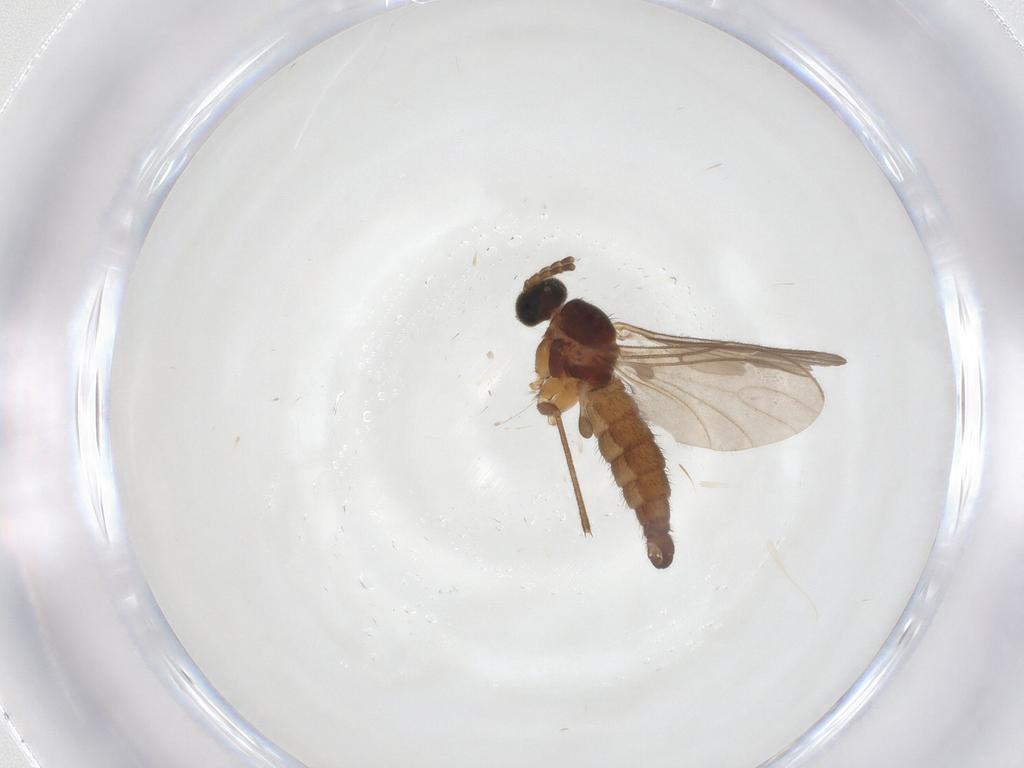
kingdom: Animalia
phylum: Arthropoda
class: Insecta
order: Diptera
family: Sciaridae
